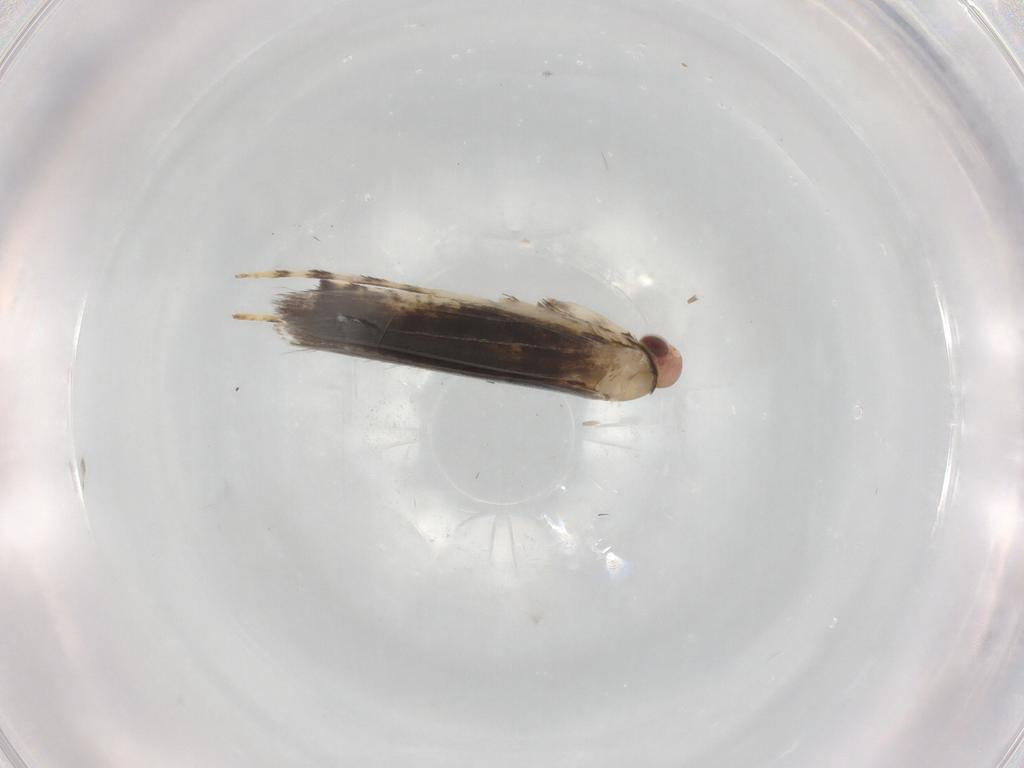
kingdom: Animalia
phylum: Arthropoda
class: Insecta
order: Lepidoptera
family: Gracillariidae
